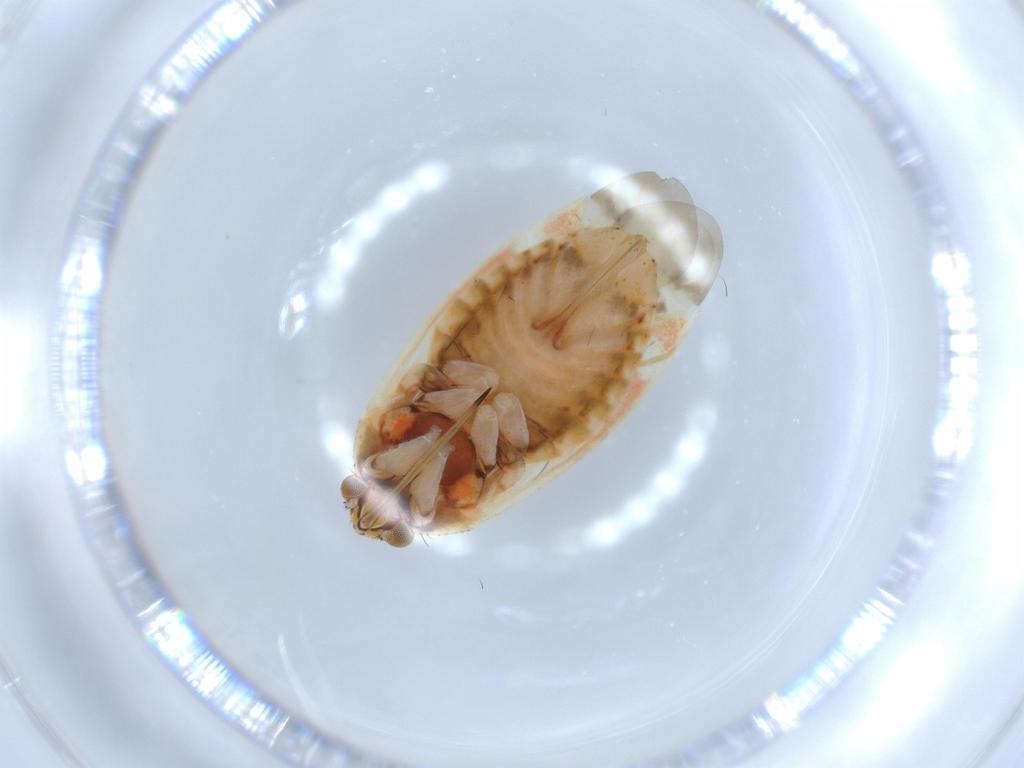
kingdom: Animalia
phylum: Arthropoda
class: Insecta
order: Hemiptera
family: Miridae
